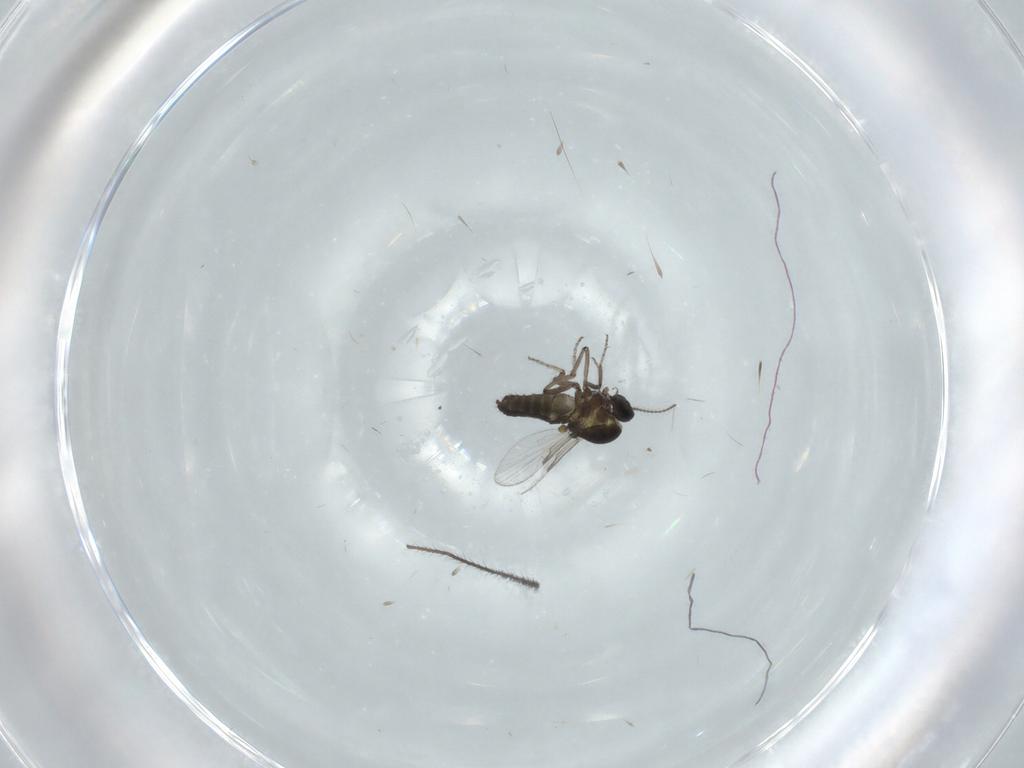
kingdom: Animalia
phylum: Arthropoda
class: Insecta
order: Diptera
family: Ceratopogonidae
